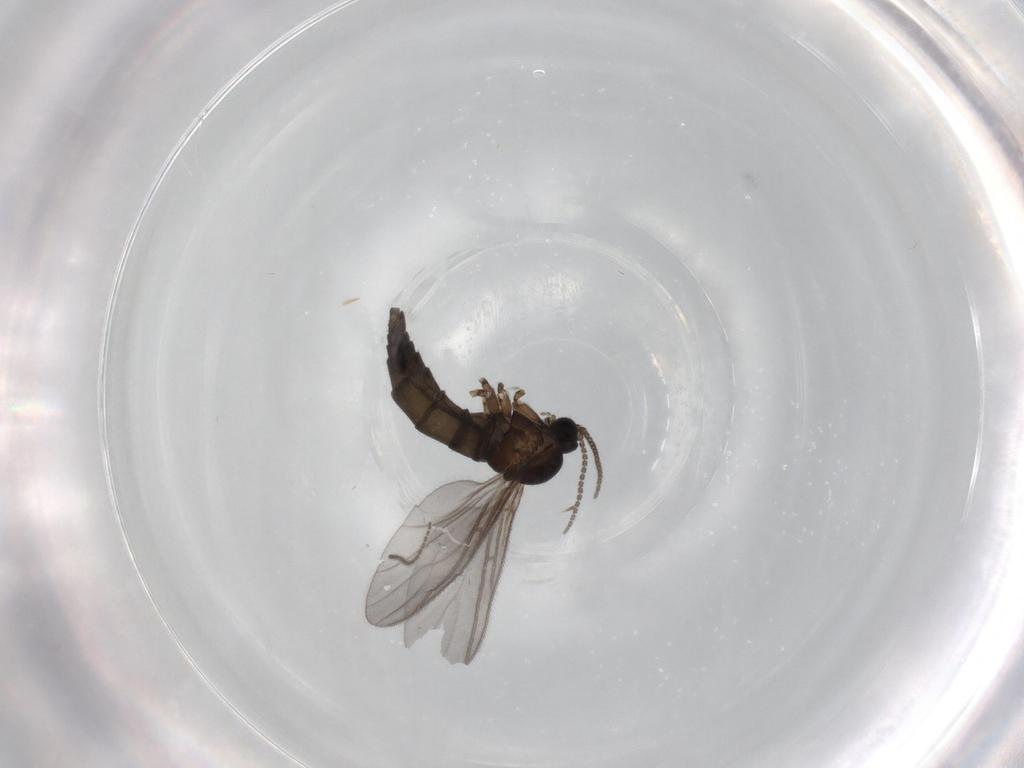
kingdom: Animalia
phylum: Arthropoda
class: Insecta
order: Diptera
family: Sciaridae
